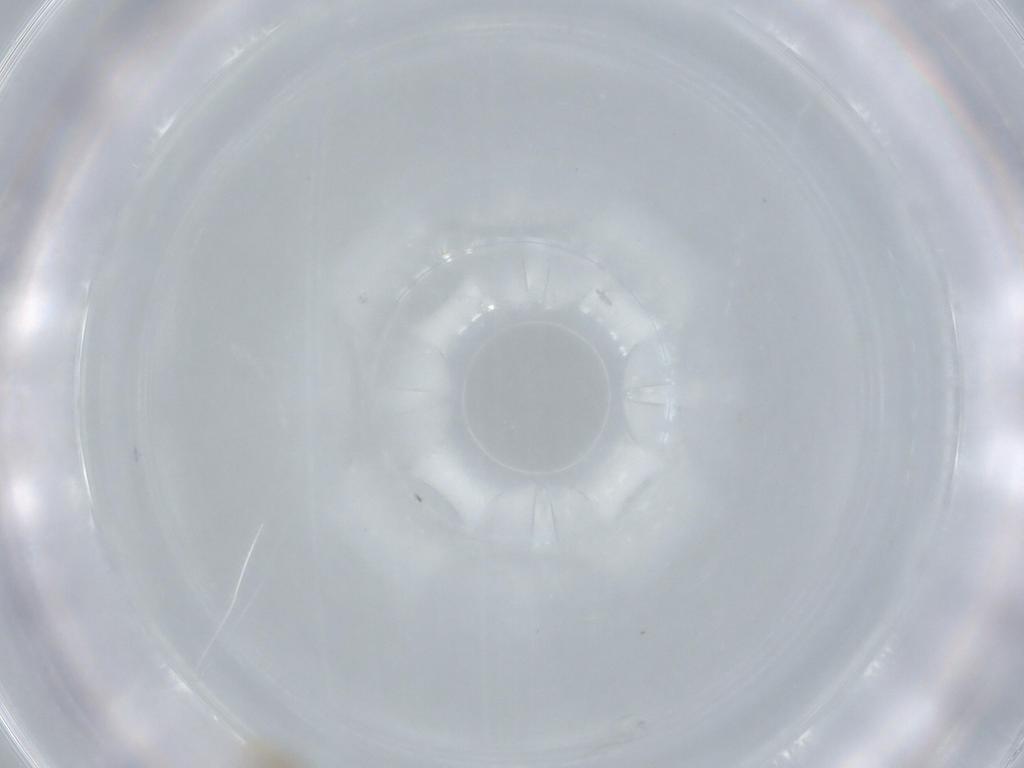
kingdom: Animalia
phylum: Arthropoda
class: Insecta
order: Diptera
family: Cecidomyiidae
